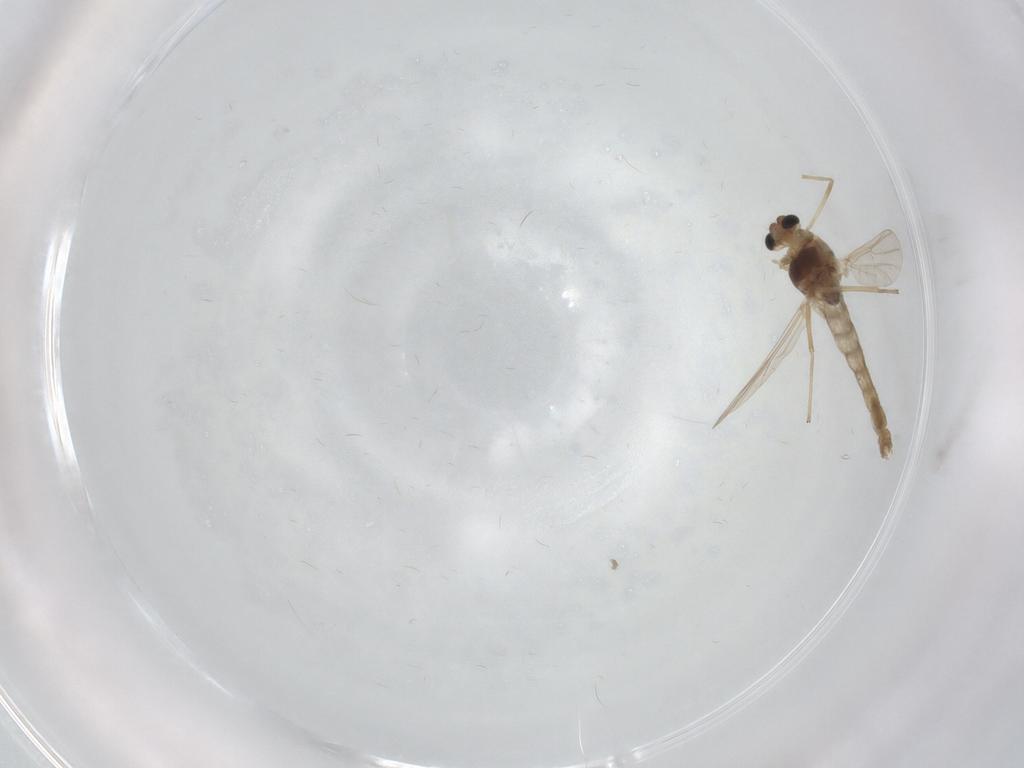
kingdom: Animalia
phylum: Arthropoda
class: Insecta
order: Diptera
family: Chironomidae
